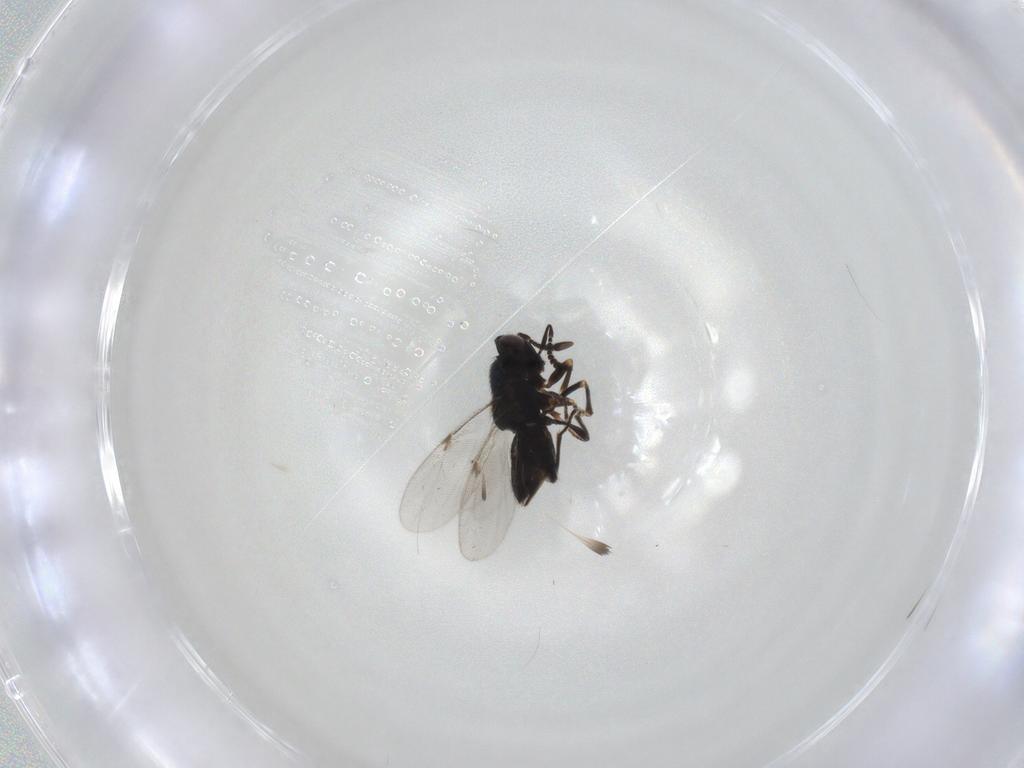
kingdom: Animalia
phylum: Arthropoda
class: Insecta
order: Hymenoptera
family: Encyrtidae
